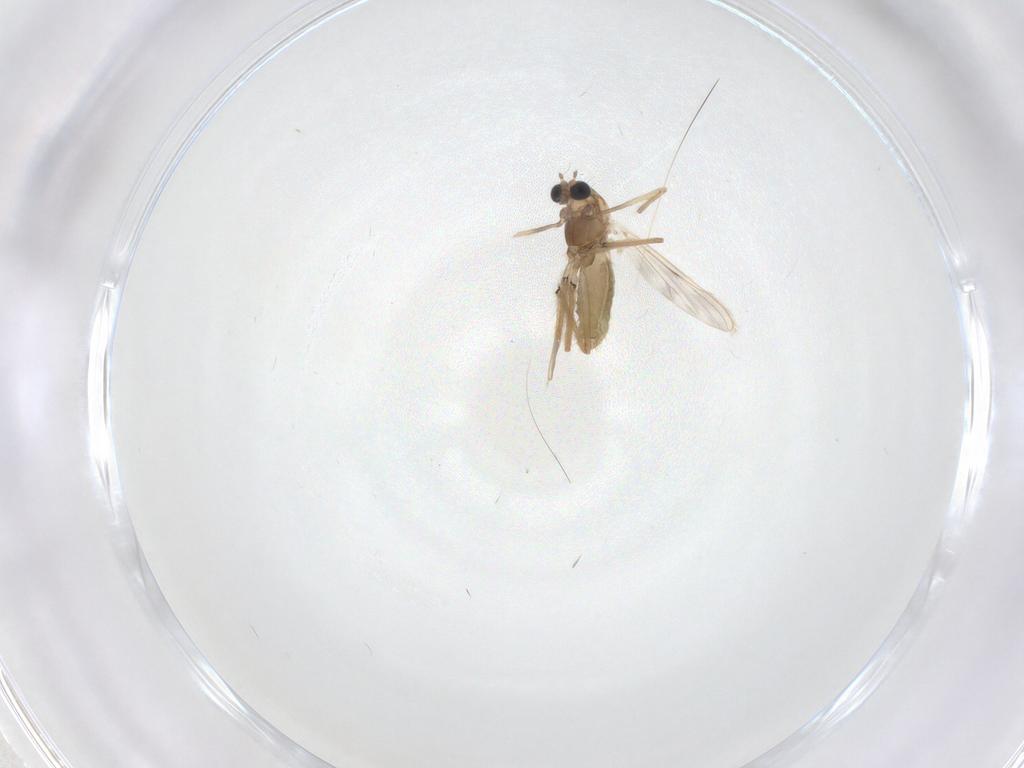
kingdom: Animalia
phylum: Arthropoda
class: Insecta
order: Diptera
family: Chironomidae
